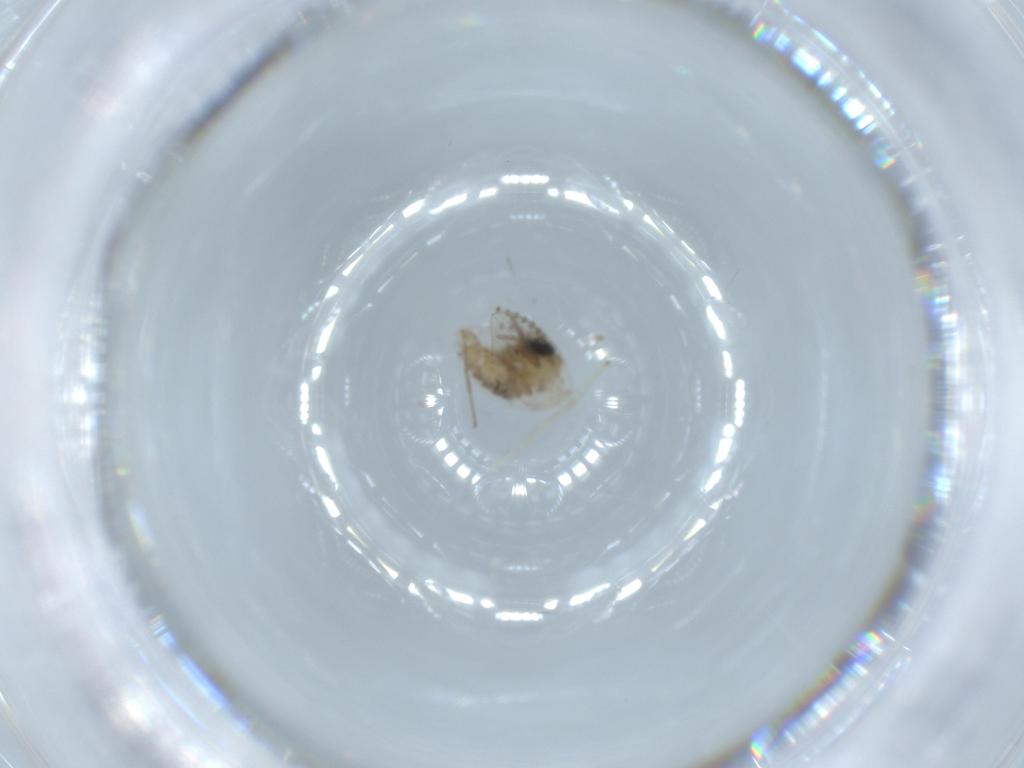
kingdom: Animalia
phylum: Arthropoda
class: Insecta
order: Diptera
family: Psychodidae
